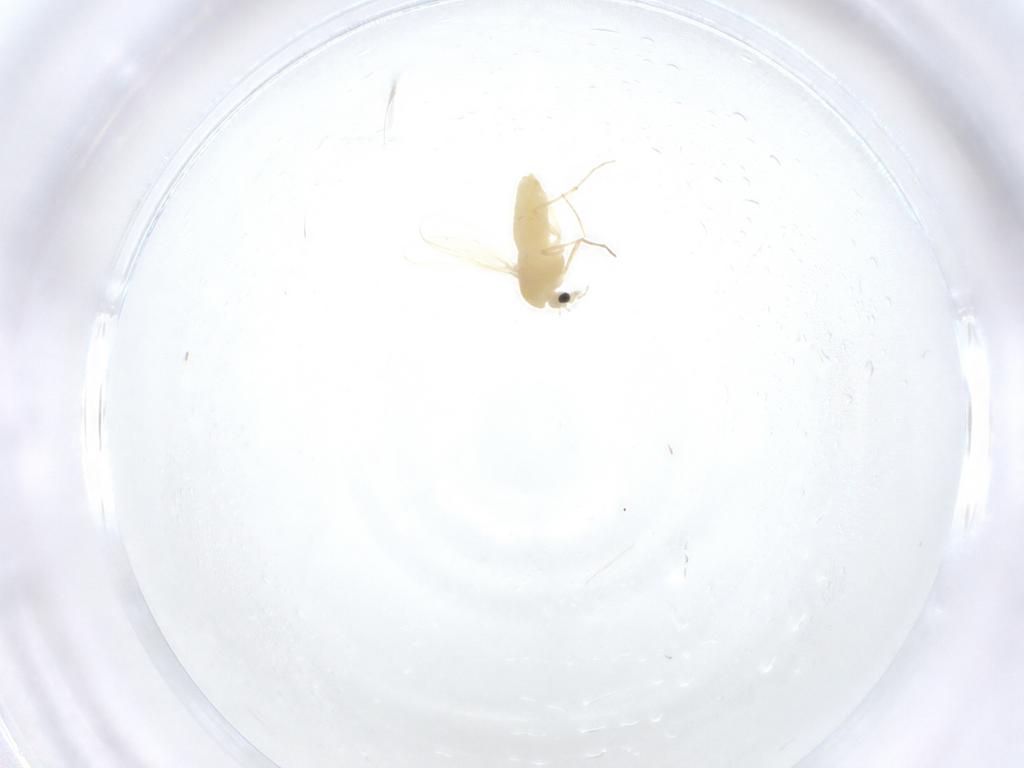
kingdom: Animalia
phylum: Arthropoda
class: Insecta
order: Diptera
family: Chironomidae
